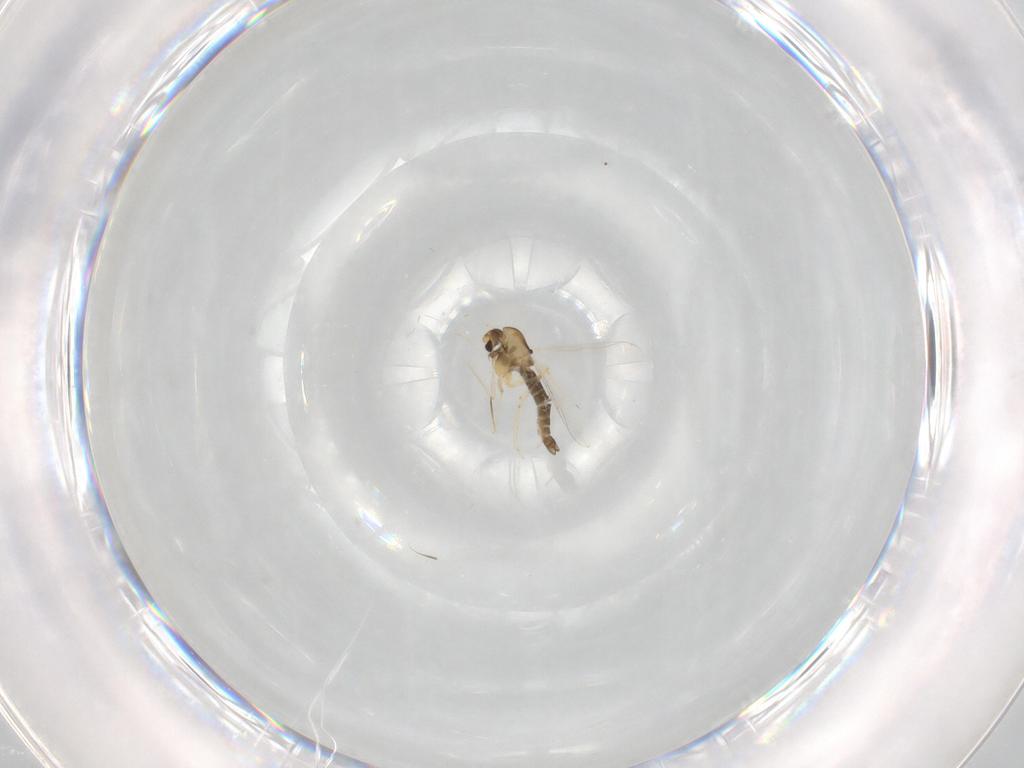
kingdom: Animalia
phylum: Arthropoda
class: Insecta
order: Diptera
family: Chironomidae
